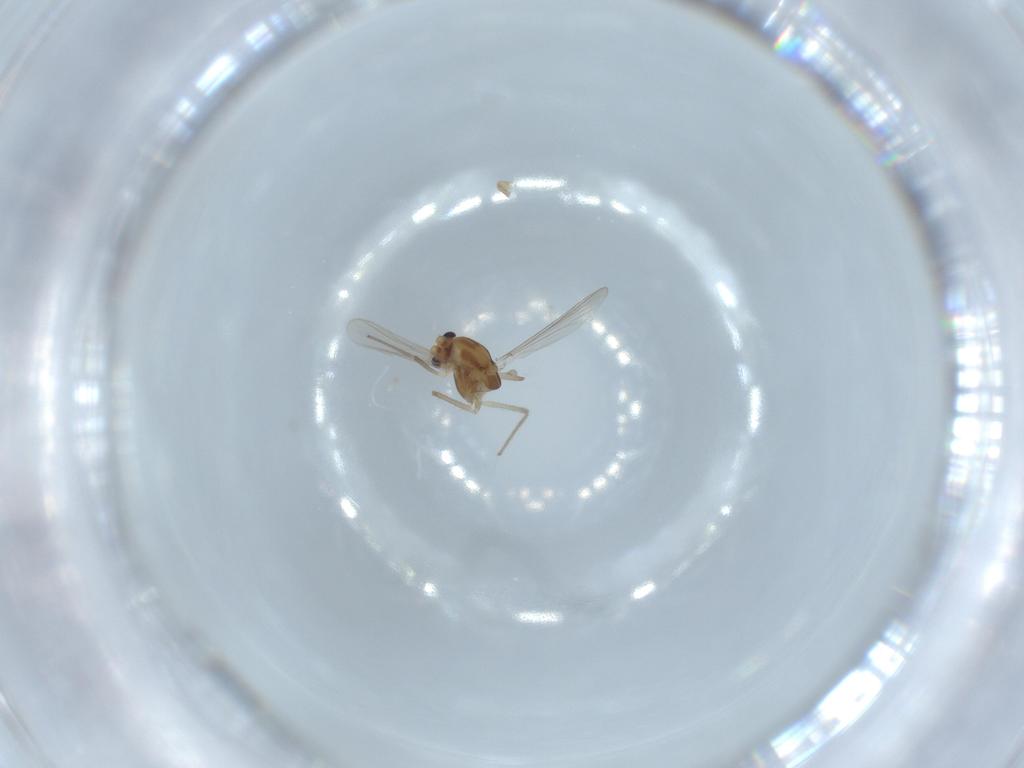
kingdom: Animalia
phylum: Arthropoda
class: Insecta
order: Diptera
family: Chironomidae
